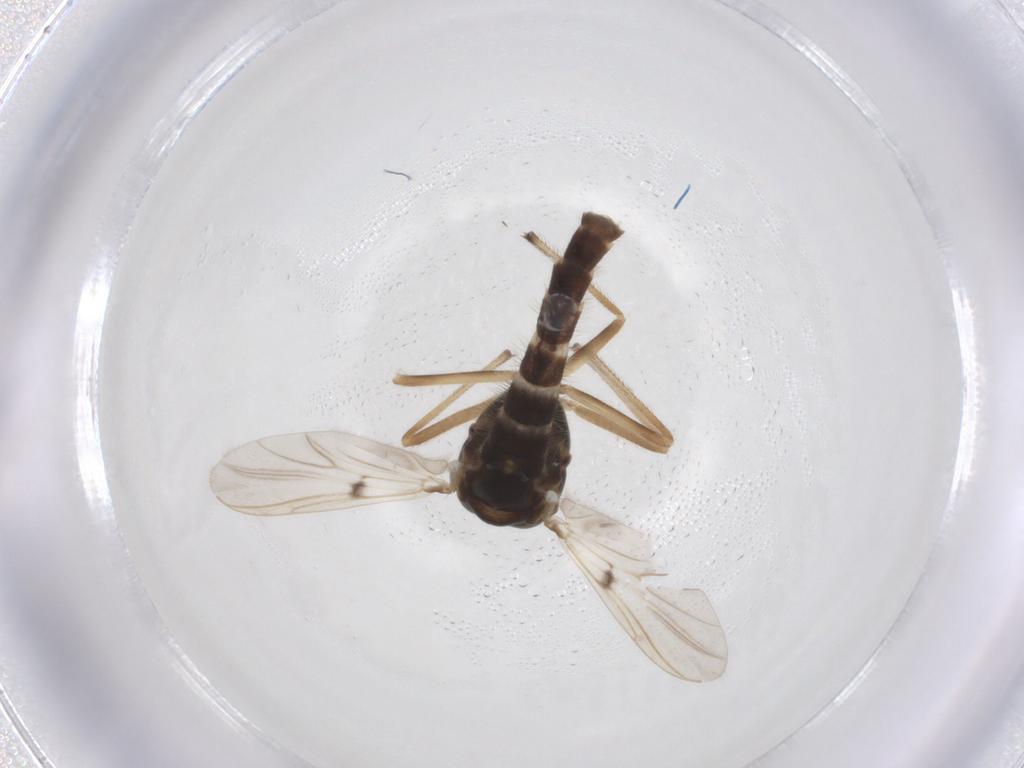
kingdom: Animalia
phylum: Arthropoda
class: Insecta
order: Diptera
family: Chironomidae
